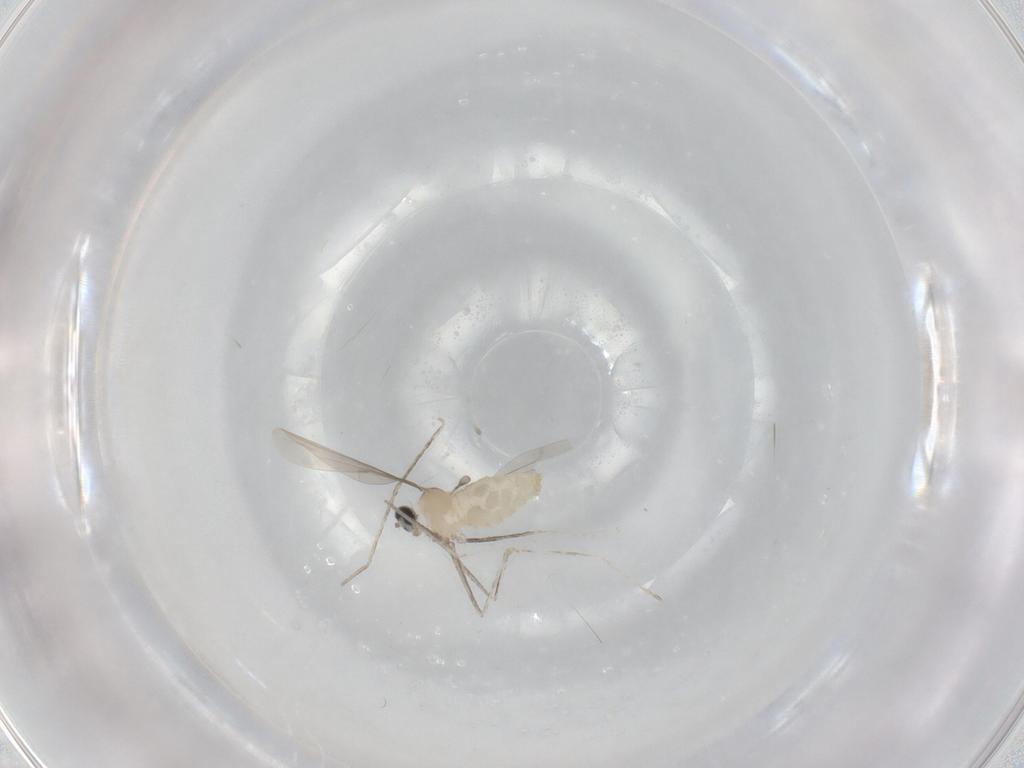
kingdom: Animalia
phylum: Arthropoda
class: Insecta
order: Diptera
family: Cecidomyiidae
